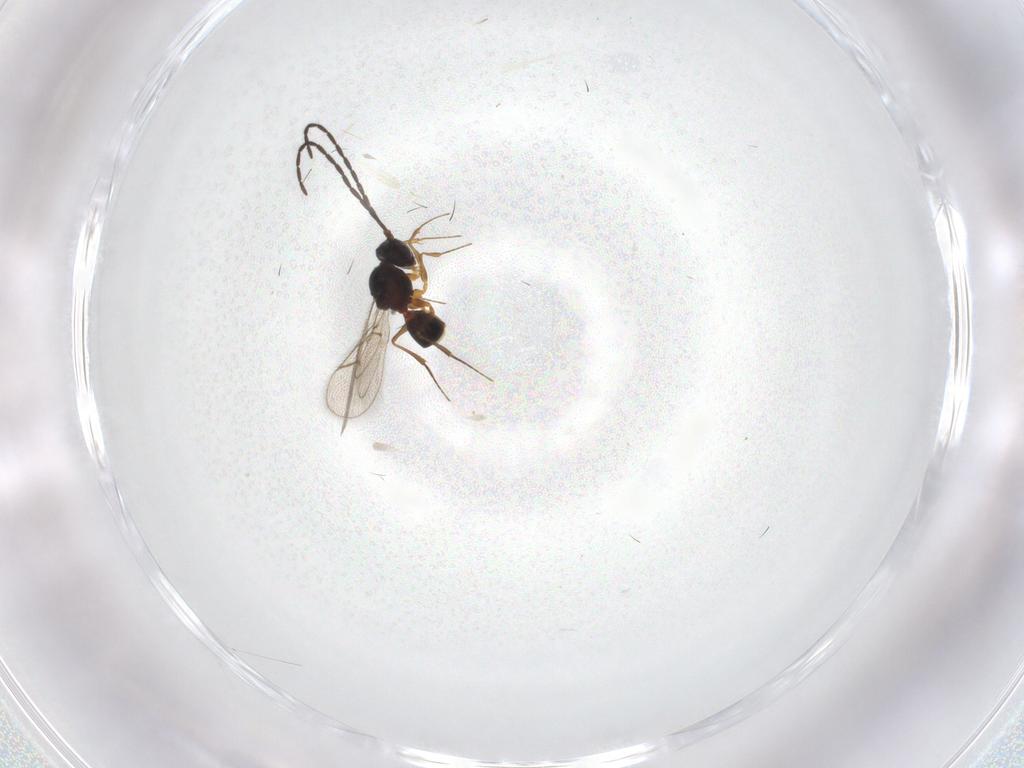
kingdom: Animalia
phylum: Arthropoda
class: Insecta
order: Hymenoptera
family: Figitidae
